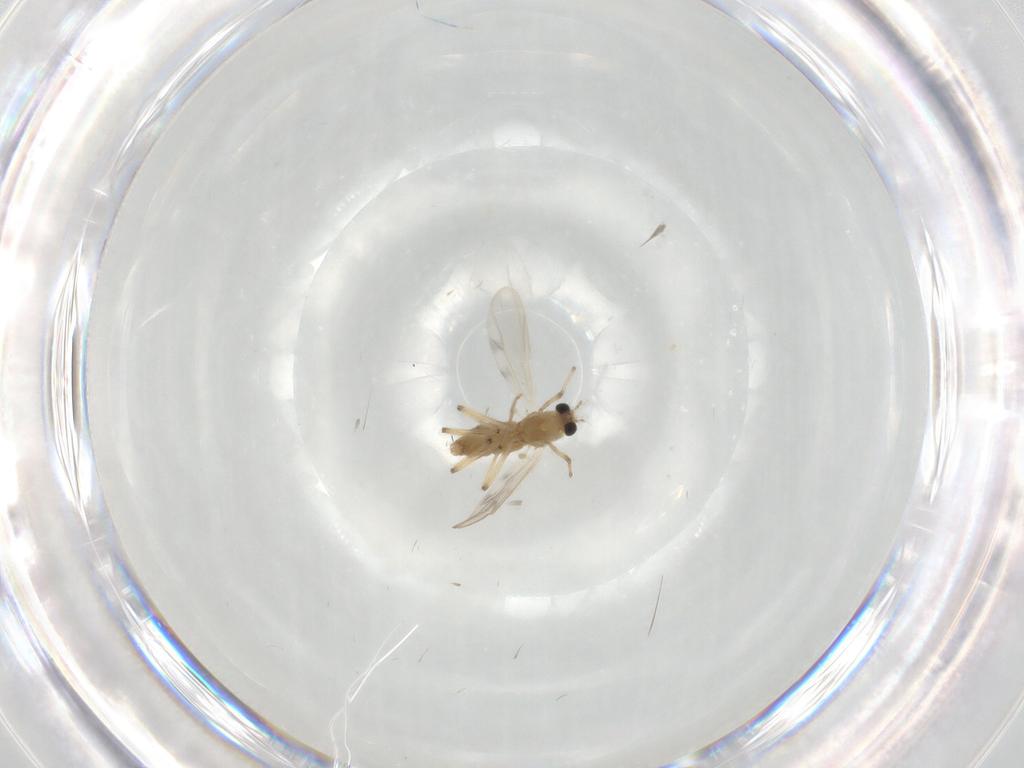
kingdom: Animalia
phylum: Arthropoda
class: Insecta
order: Diptera
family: Chironomidae
